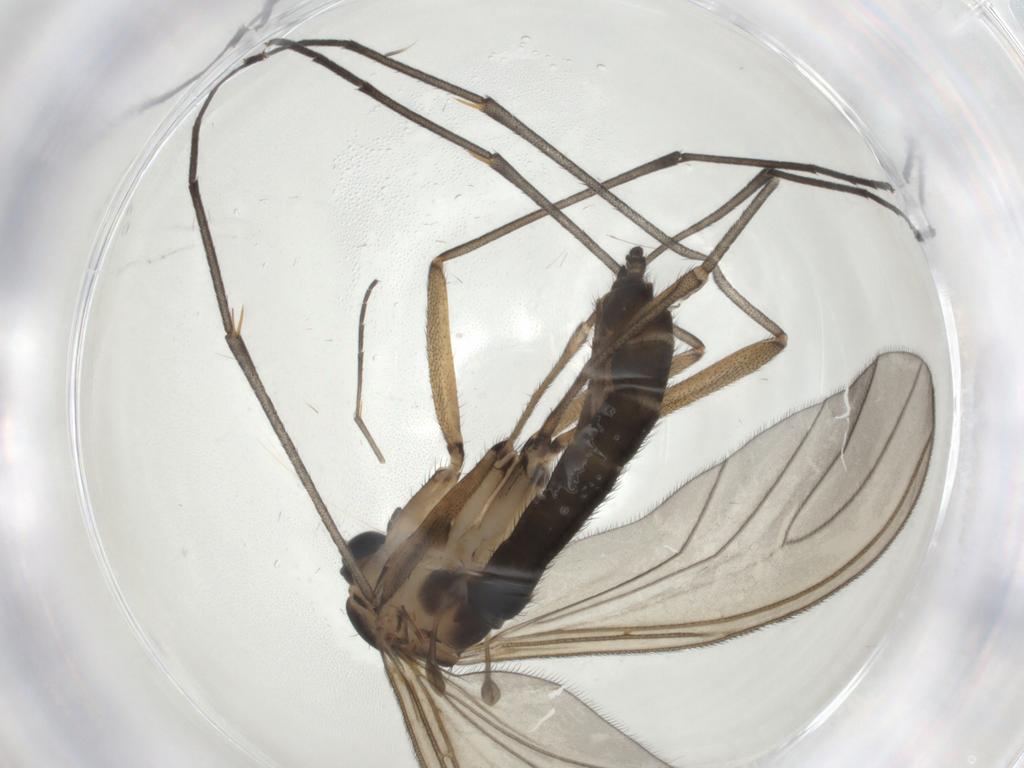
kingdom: Animalia
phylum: Arthropoda
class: Insecta
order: Diptera
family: Sciaridae
